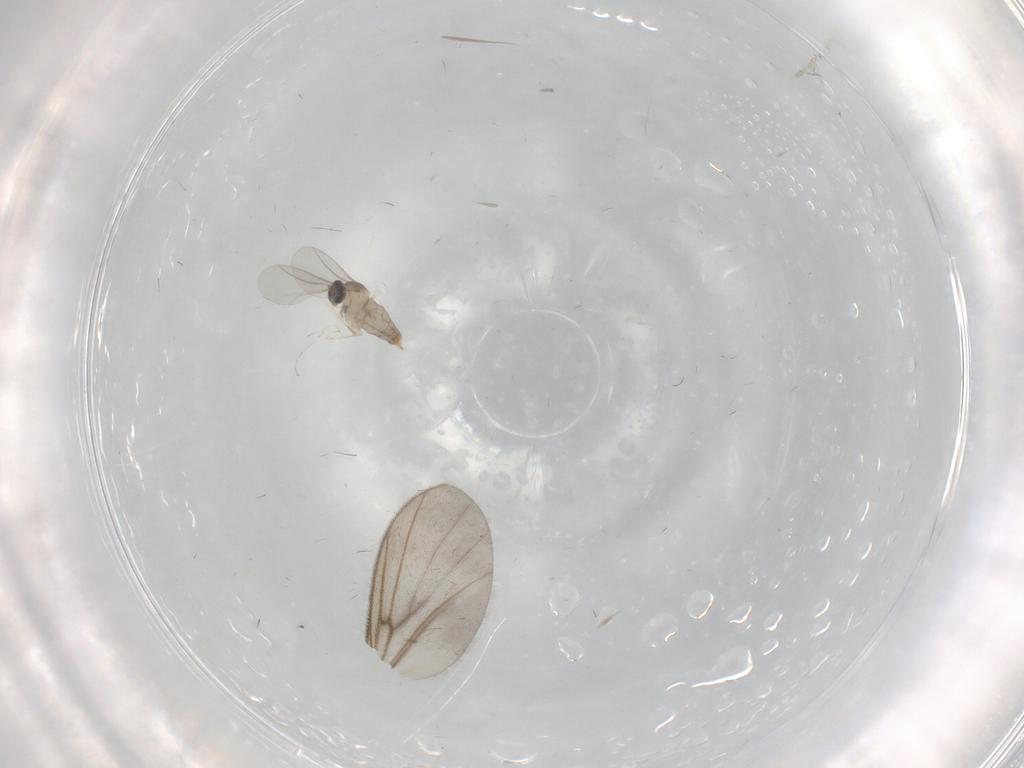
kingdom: Animalia
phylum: Arthropoda
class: Insecta
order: Diptera
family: Cecidomyiidae
